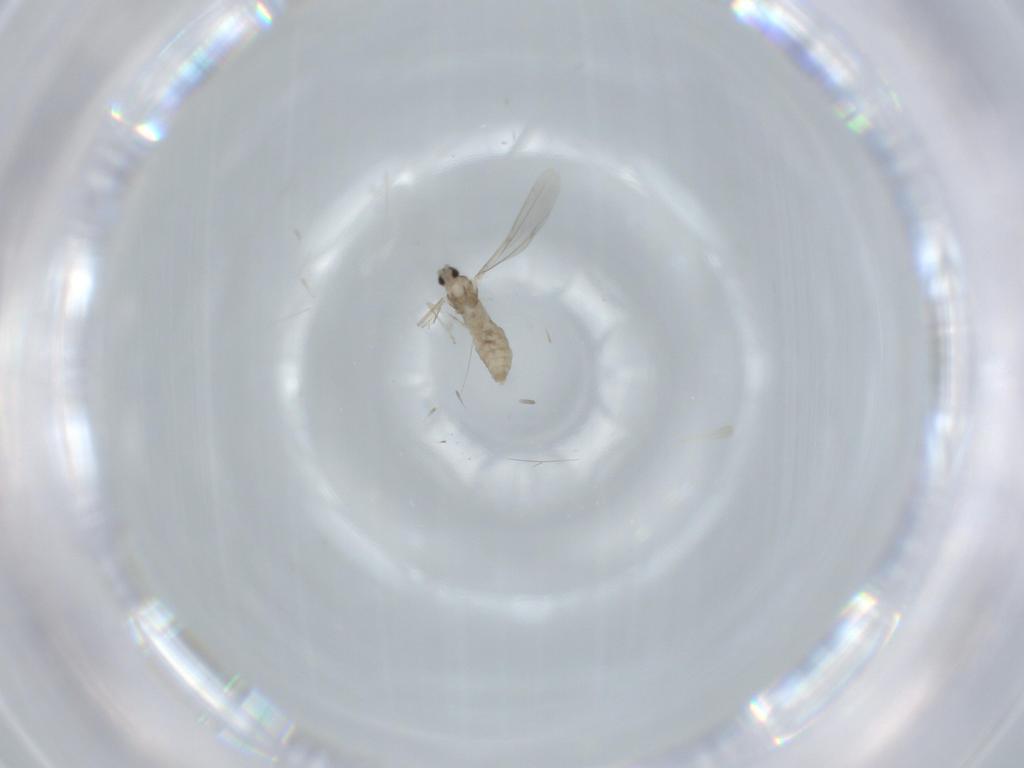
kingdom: Animalia
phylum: Arthropoda
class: Insecta
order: Diptera
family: Cecidomyiidae
